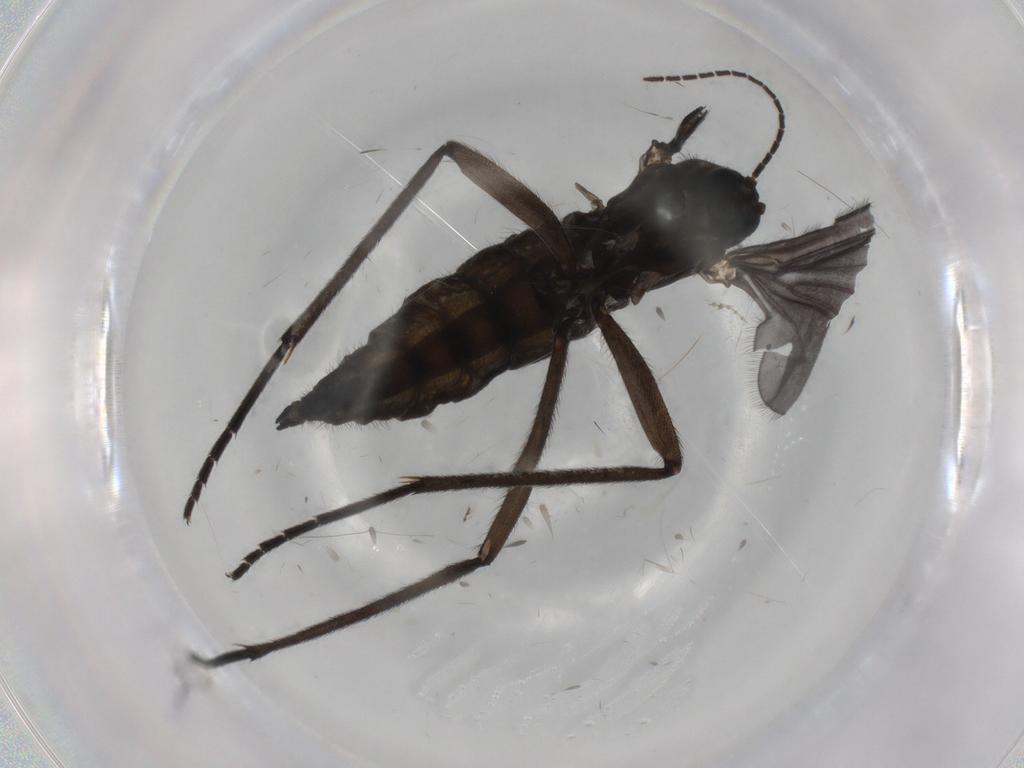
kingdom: Animalia
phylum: Arthropoda
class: Insecta
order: Diptera
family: Sciaridae
